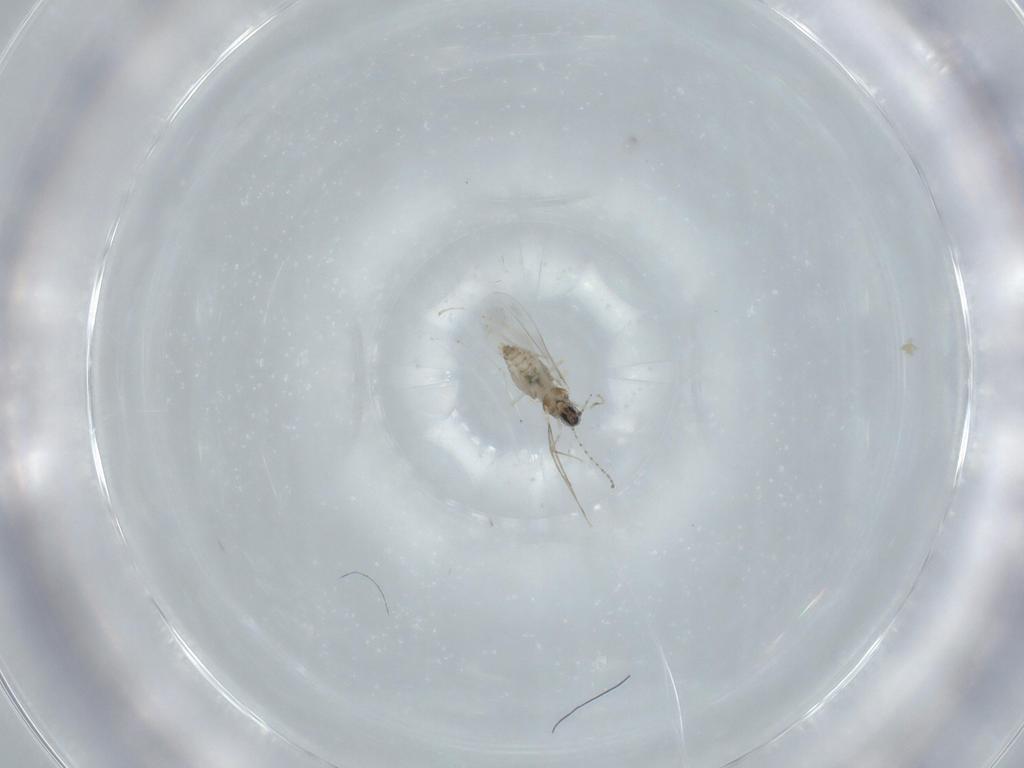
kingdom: Animalia
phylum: Arthropoda
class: Insecta
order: Diptera
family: Cecidomyiidae
